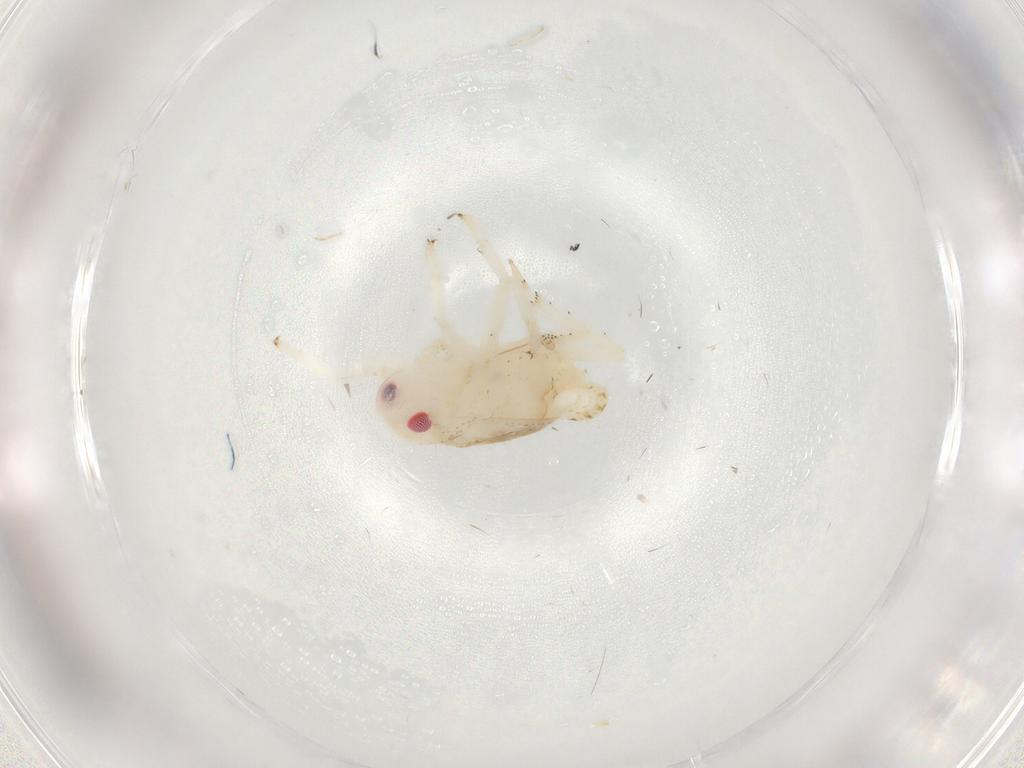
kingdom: Animalia
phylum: Arthropoda
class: Insecta
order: Hemiptera
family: Fulgoroidea_incertae_sedis
